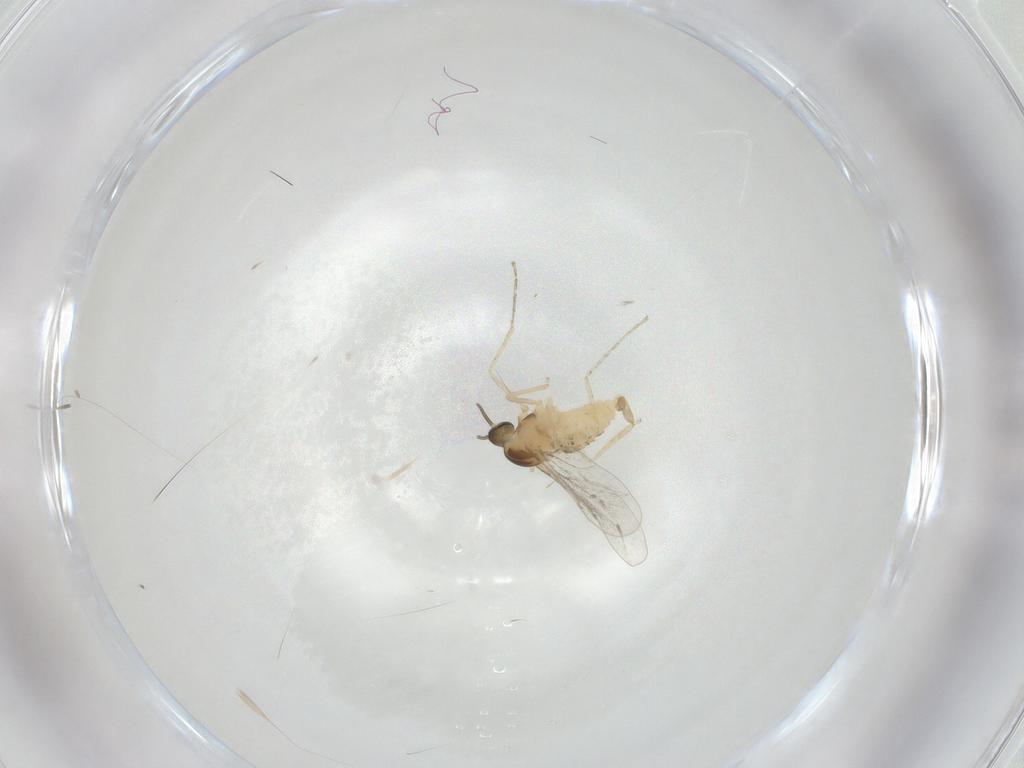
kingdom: Animalia
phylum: Arthropoda
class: Insecta
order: Diptera
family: Cecidomyiidae
